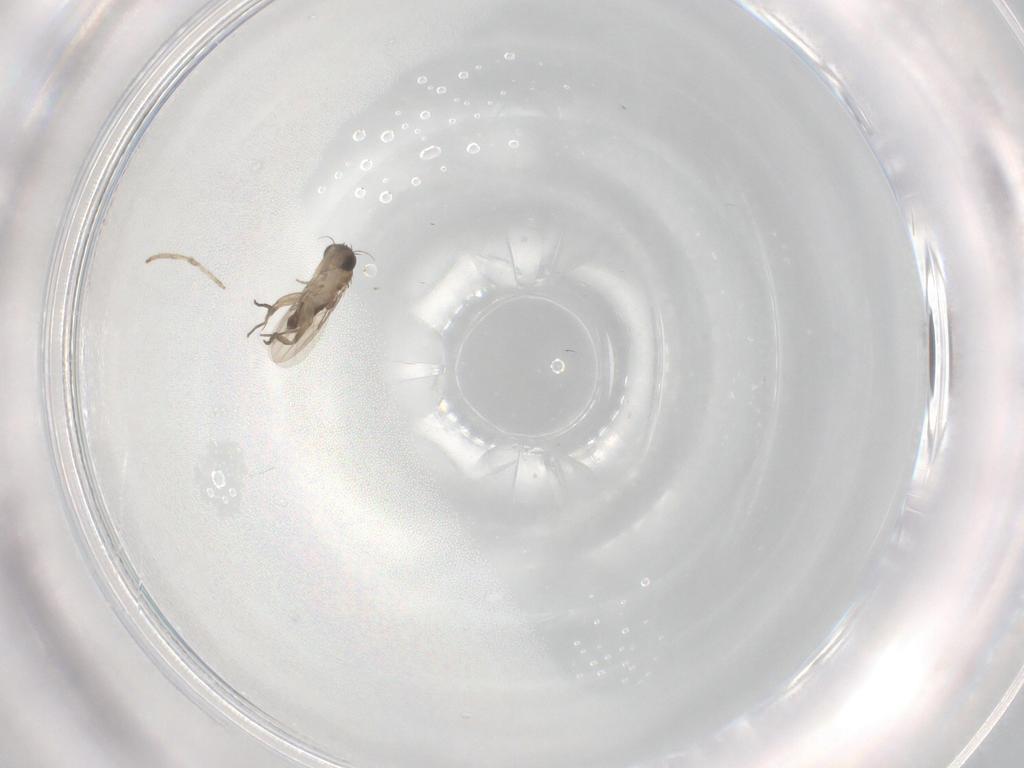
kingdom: Animalia
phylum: Arthropoda
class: Insecta
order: Diptera
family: Phoridae
